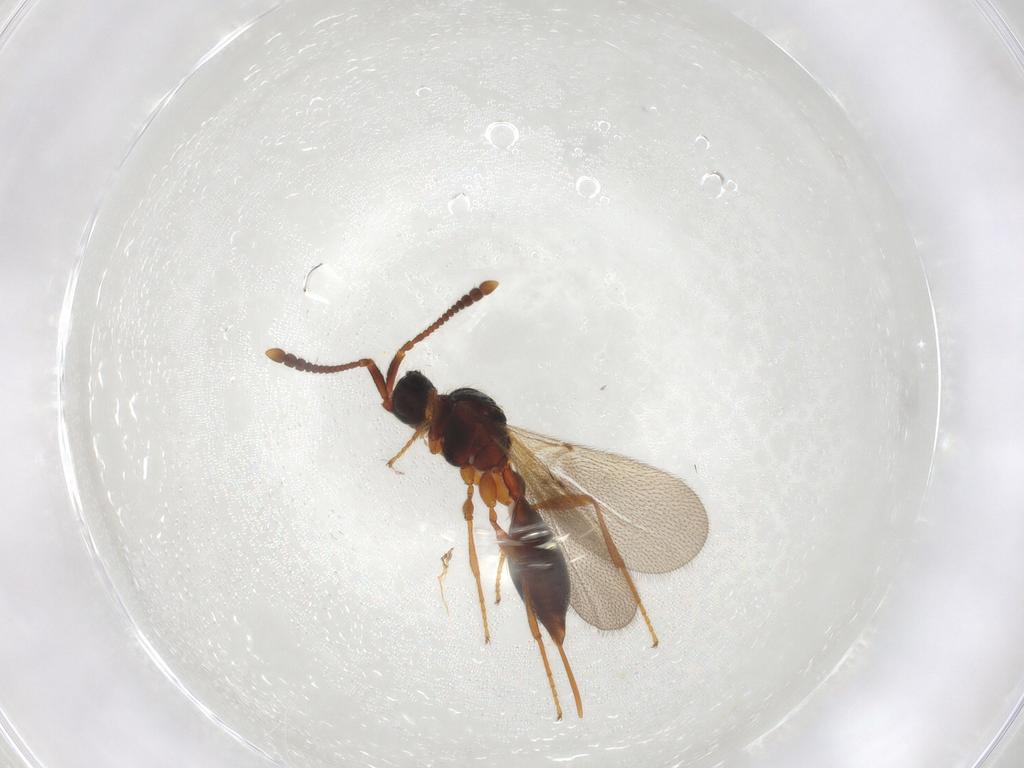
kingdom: Animalia
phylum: Arthropoda
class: Insecta
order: Hymenoptera
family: Diapriidae
